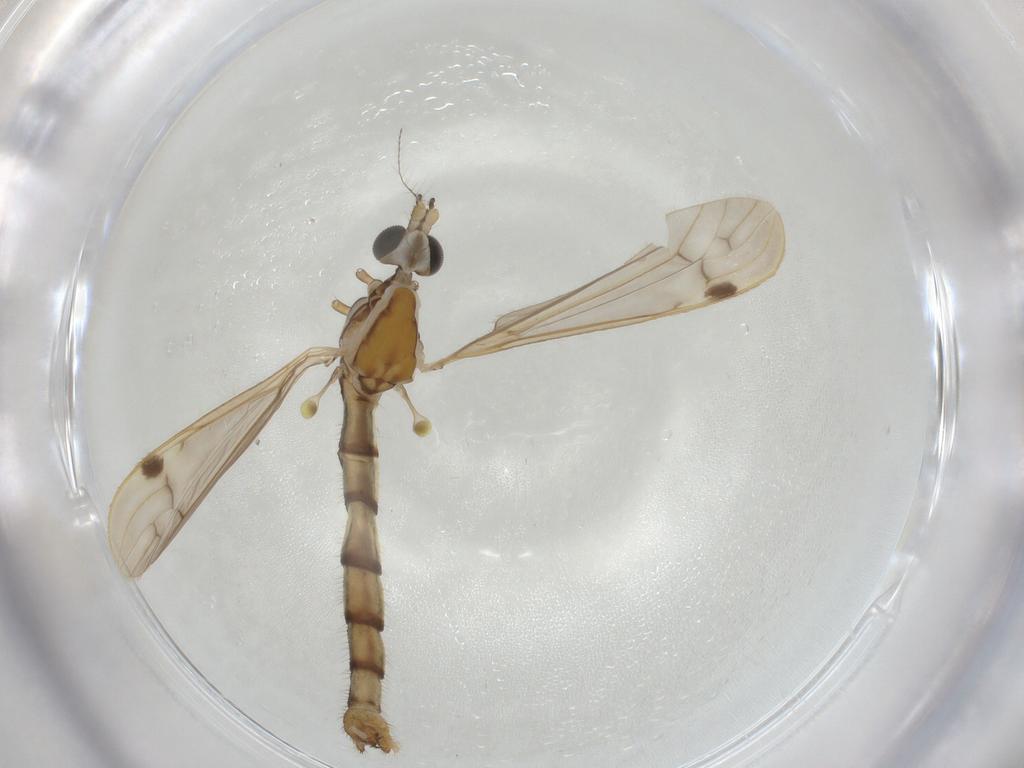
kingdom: Animalia
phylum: Arthropoda
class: Insecta
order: Diptera
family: Limoniidae
